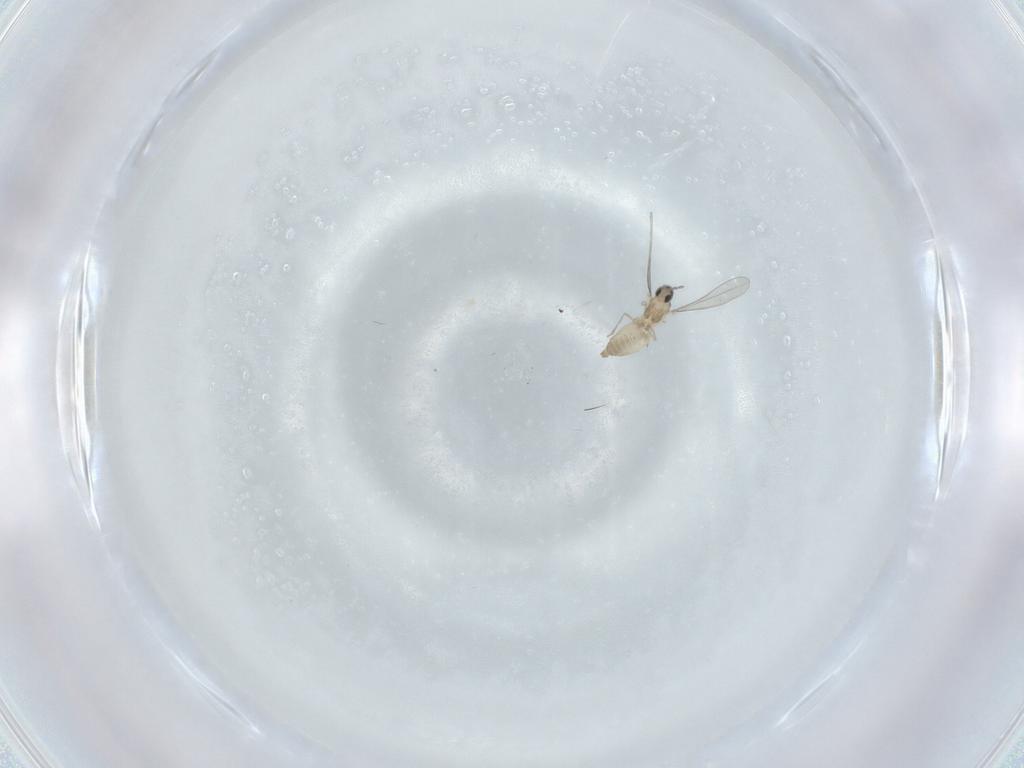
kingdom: Animalia
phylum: Arthropoda
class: Insecta
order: Diptera
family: Cecidomyiidae
